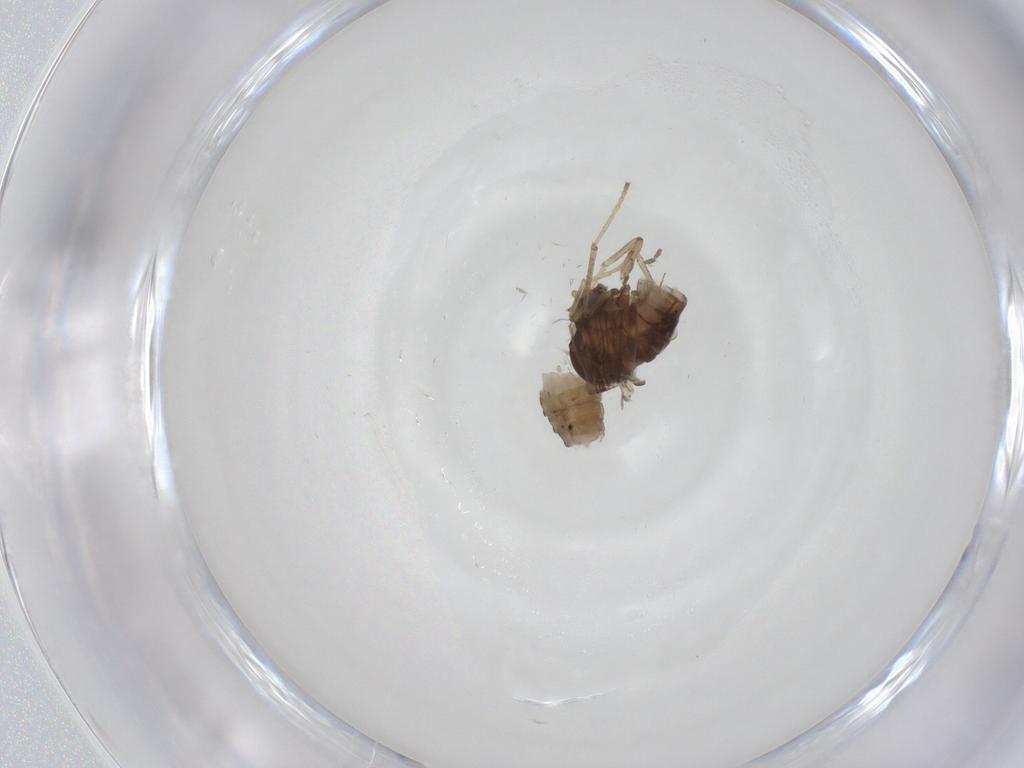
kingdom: Animalia
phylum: Arthropoda
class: Insecta
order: Diptera
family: Psychodidae
